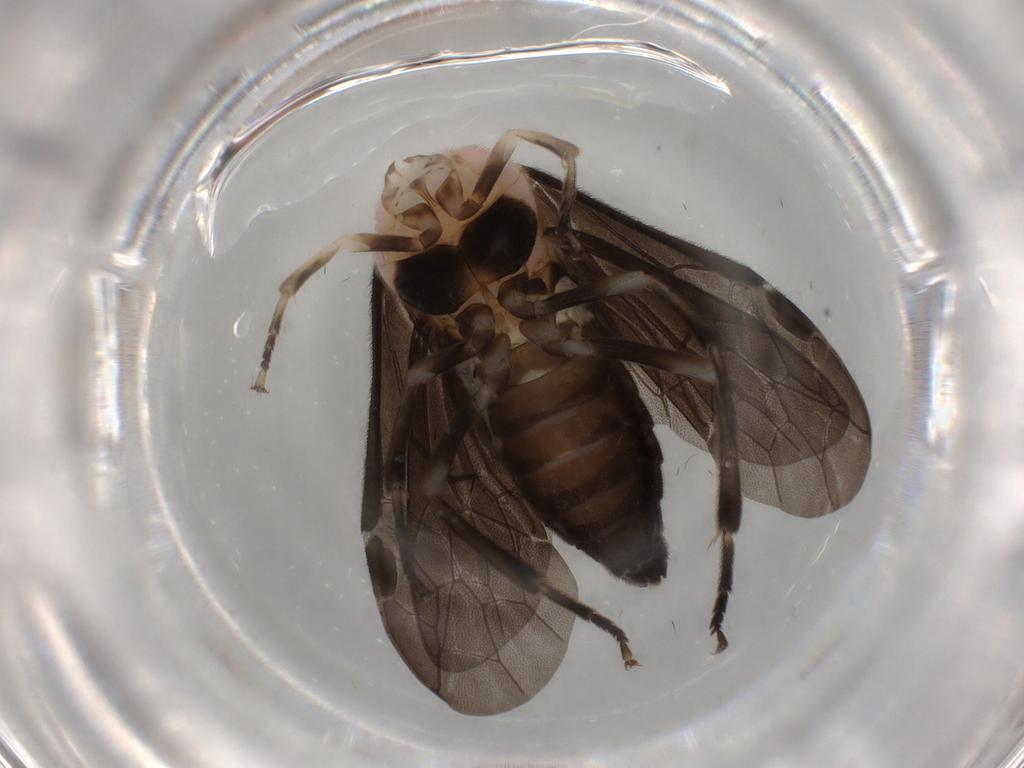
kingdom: Animalia
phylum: Arthropoda
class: Insecta
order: Hymenoptera
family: Tenthredinidae
